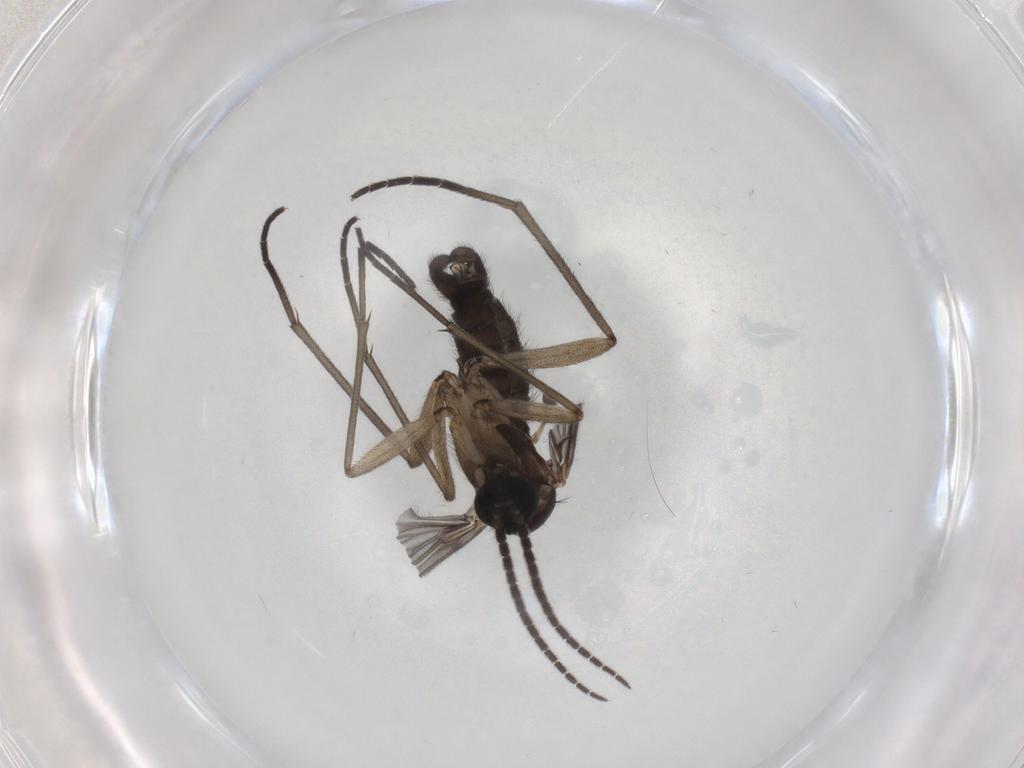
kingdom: Animalia
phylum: Arthropoda
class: Insecta
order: Diptera
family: Sciaridae
